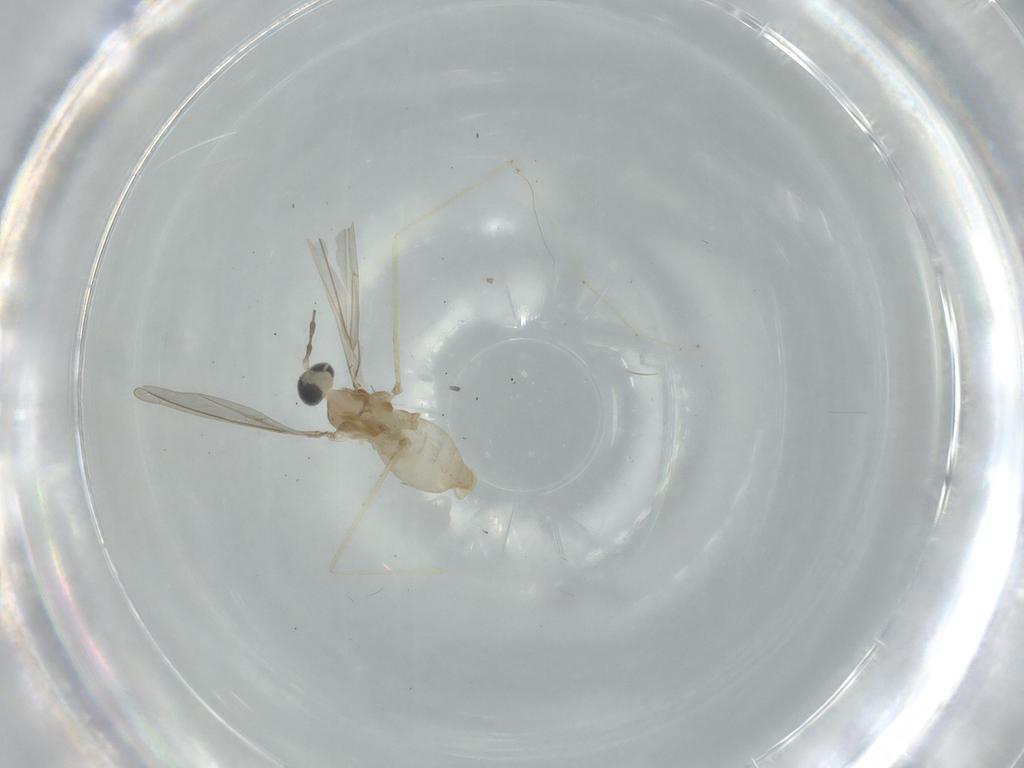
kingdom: Animalia
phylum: Arthropoda
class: Insecta
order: Diptera
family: Cecidomyiidae
